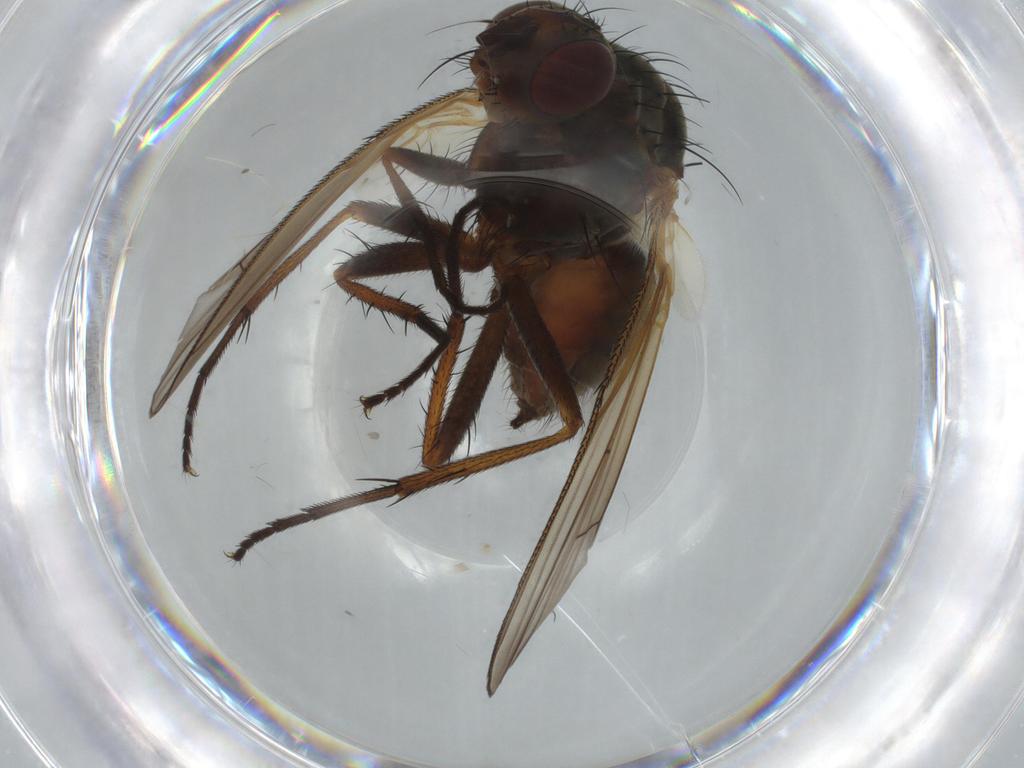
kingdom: Animalia
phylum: Arthropoda
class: Insecta
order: Diptera
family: Anthomyiidae
